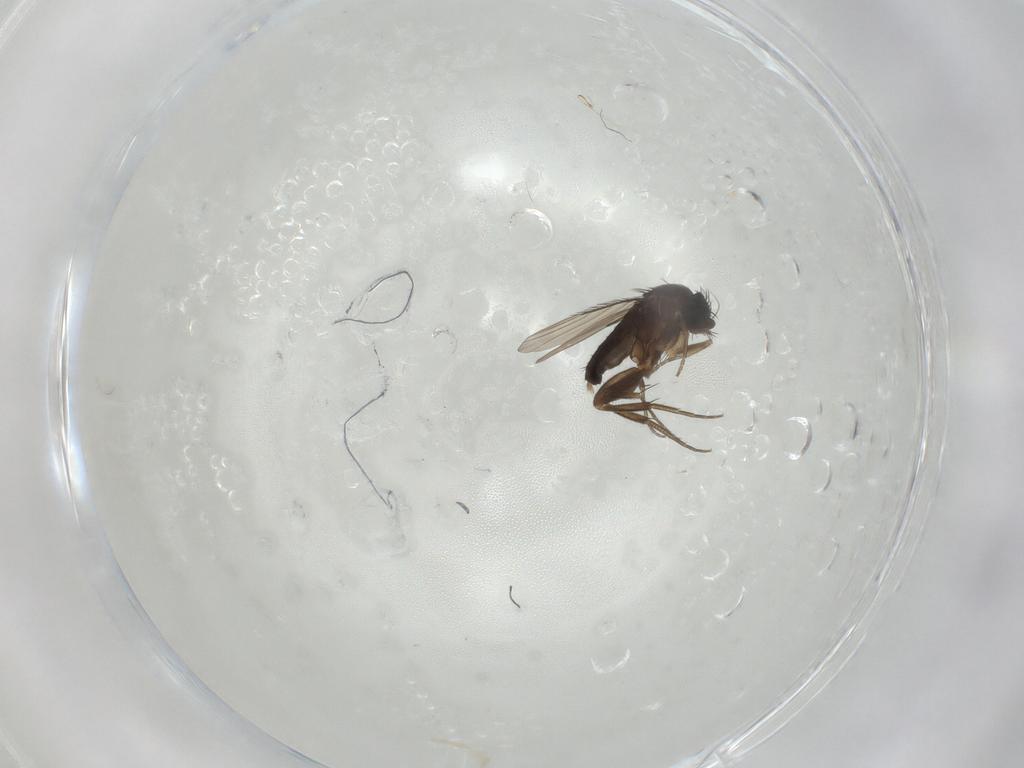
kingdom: Animalia
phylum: Arthropoda
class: Insecta
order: Diptera
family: Phoridae
